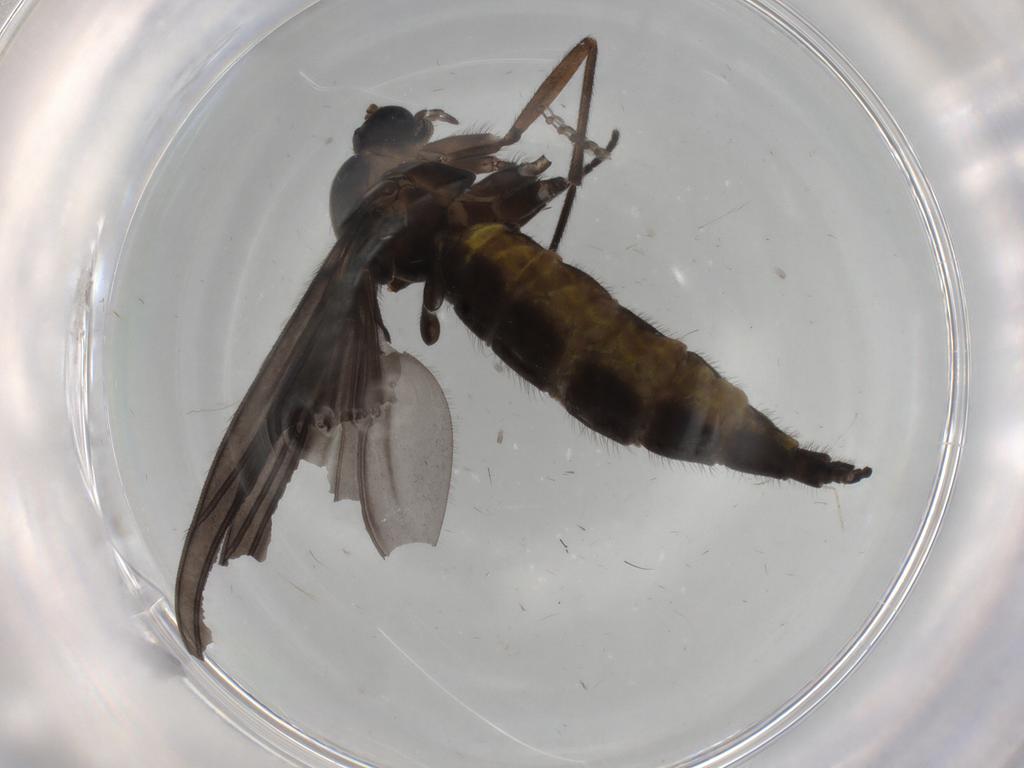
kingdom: Animalia
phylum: Arthropoda
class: Insecta
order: Diptera
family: Sciaridae
